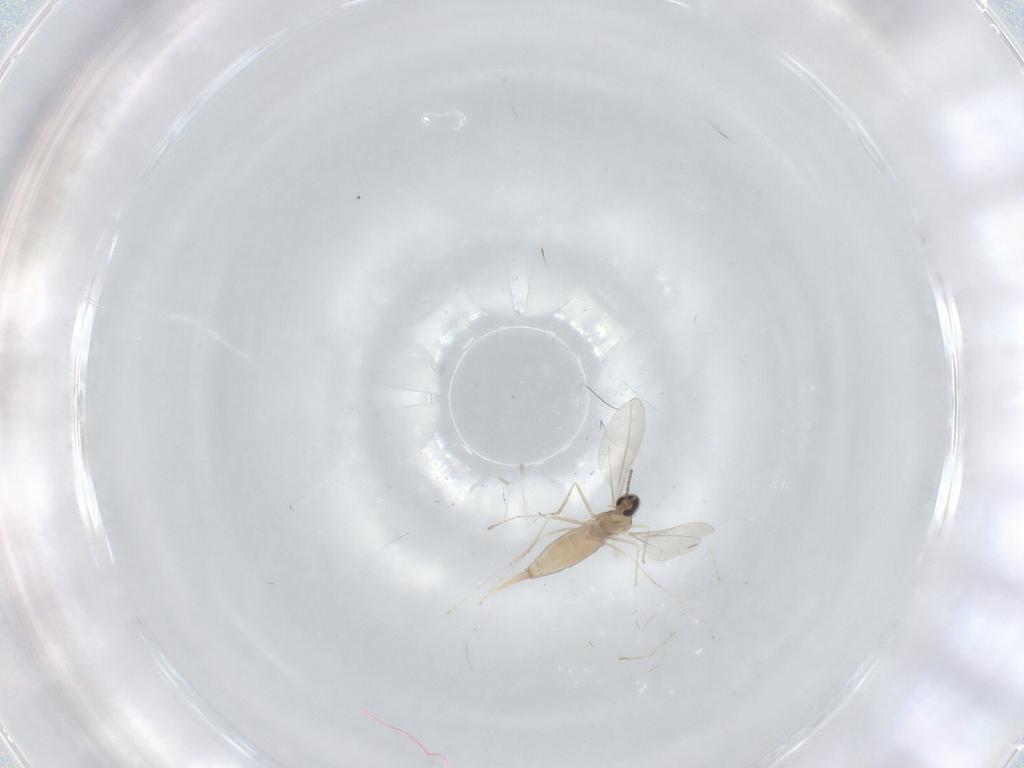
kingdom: Animalia
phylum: Arthropoda
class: Insecta
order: Diptera
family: Cecidomyiidae
